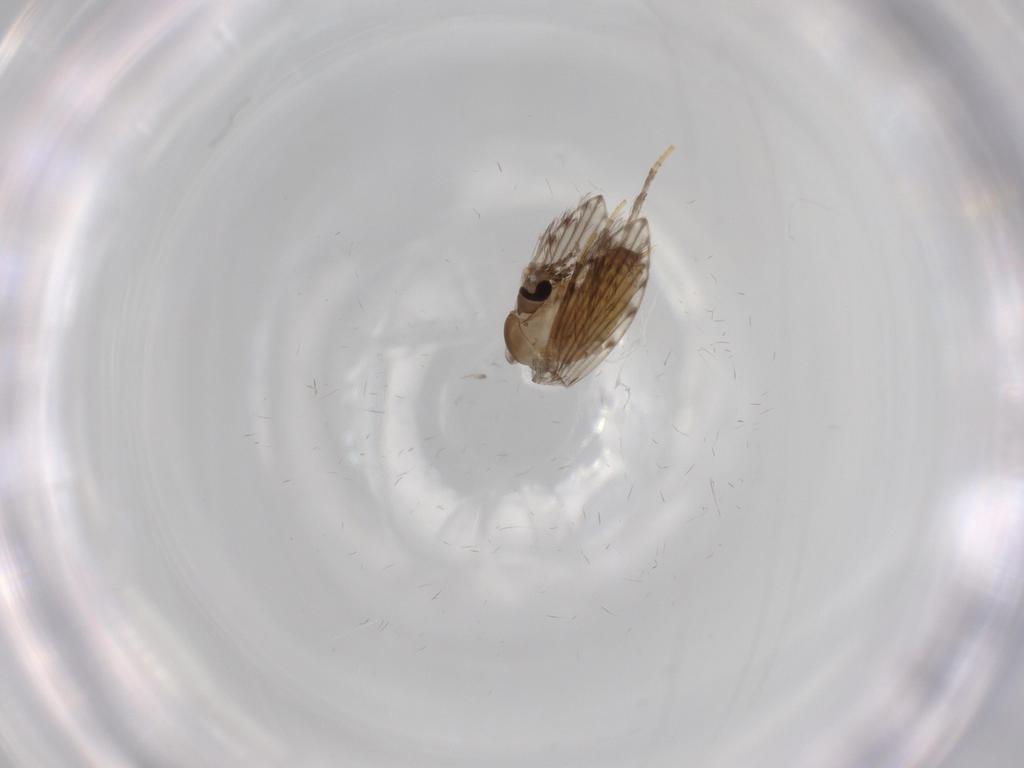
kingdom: Animalia
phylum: Arthropoda
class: Insecta
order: Diptera
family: Psychodidae
